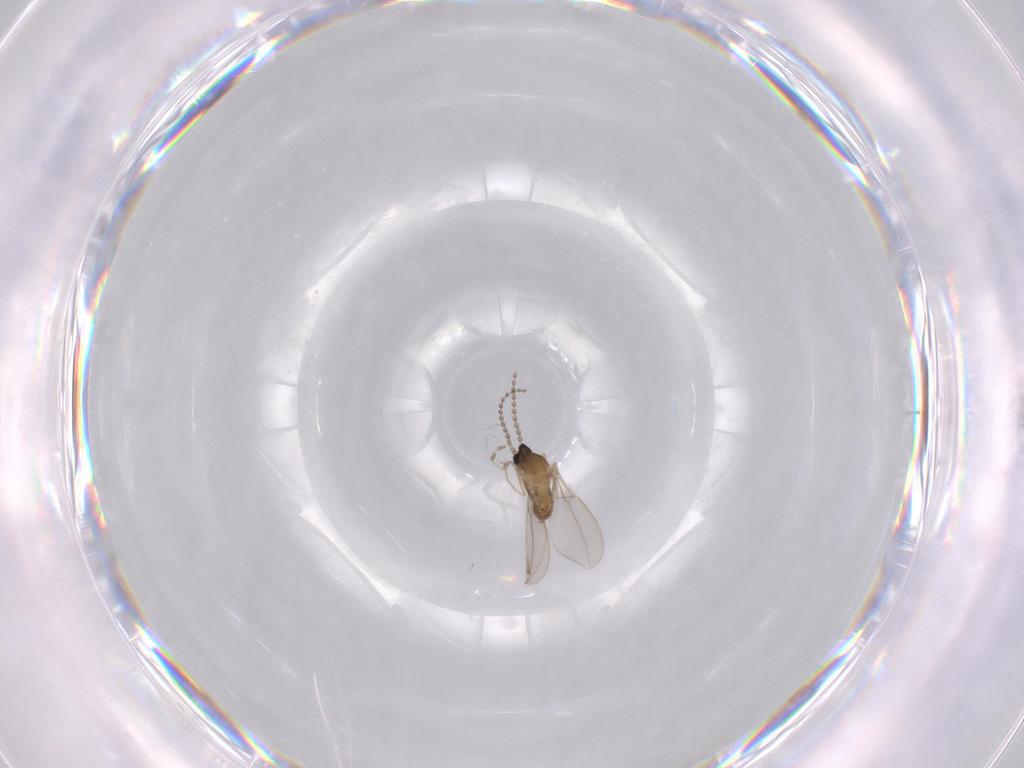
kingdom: Animalia
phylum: Arthropoda
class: Insecta
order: Diptera
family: Cecidomyiidae
